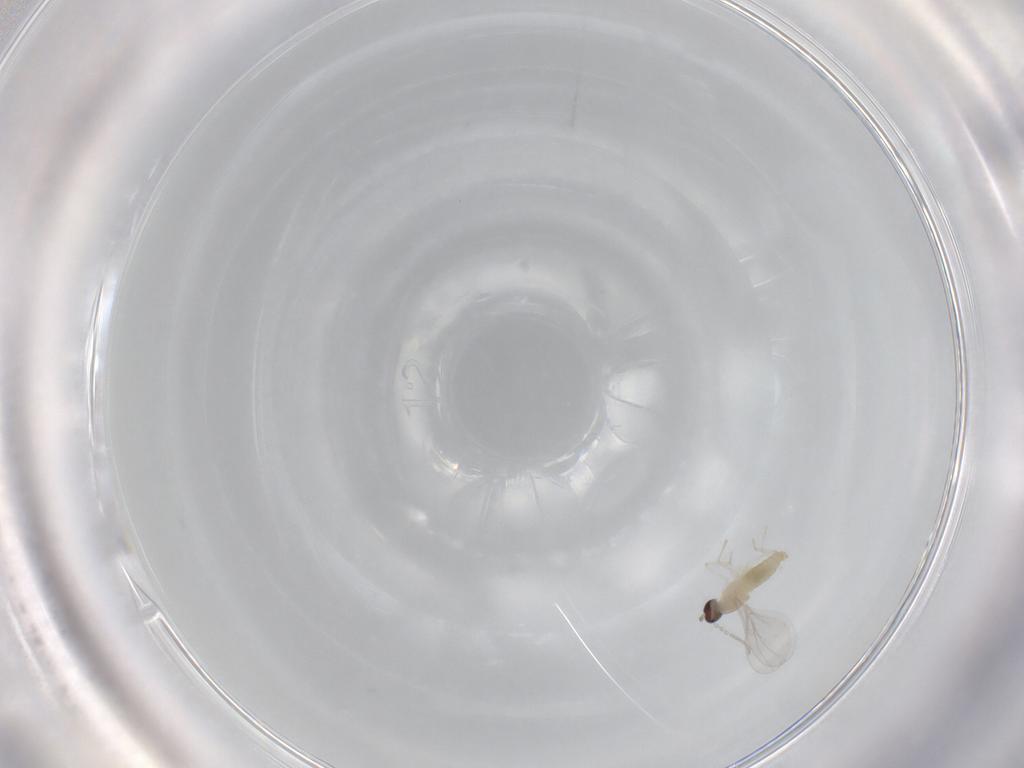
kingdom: Animalia
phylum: Arthropoda
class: Insecta
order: Diptera
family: Cecidomyiidae
